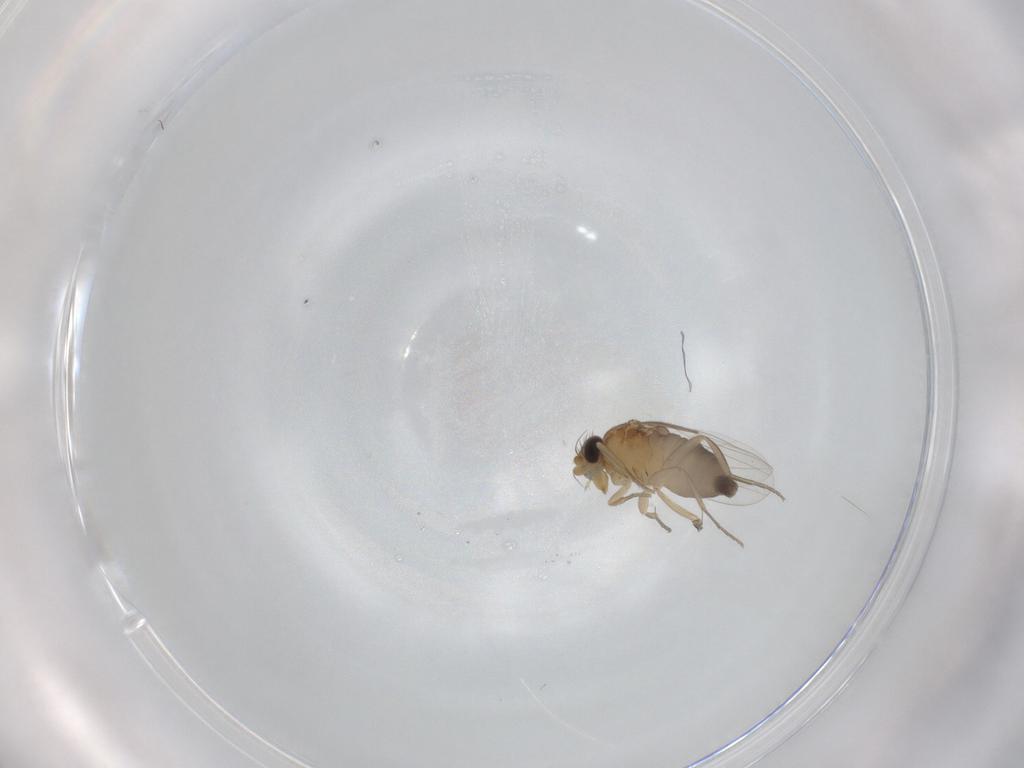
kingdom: Animalia
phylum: Arthropoda
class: Insecta
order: Diptera
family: Phoridae
